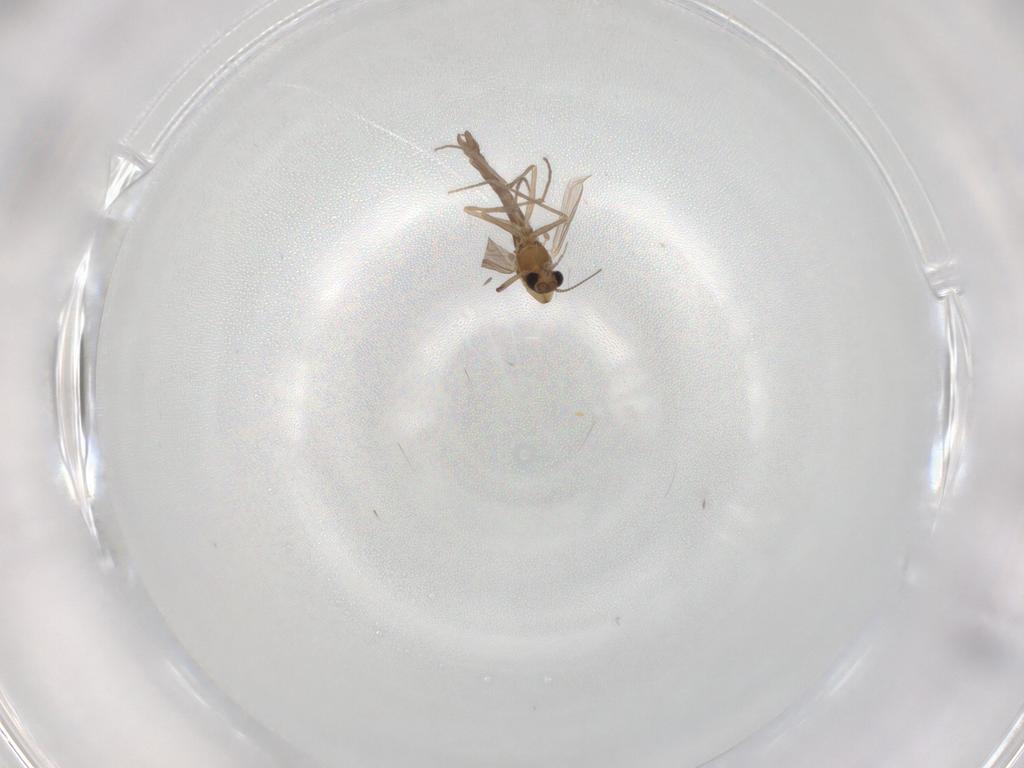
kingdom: Animalia
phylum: Arthropoda
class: Insecta
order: Diptera
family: Chironomidae
